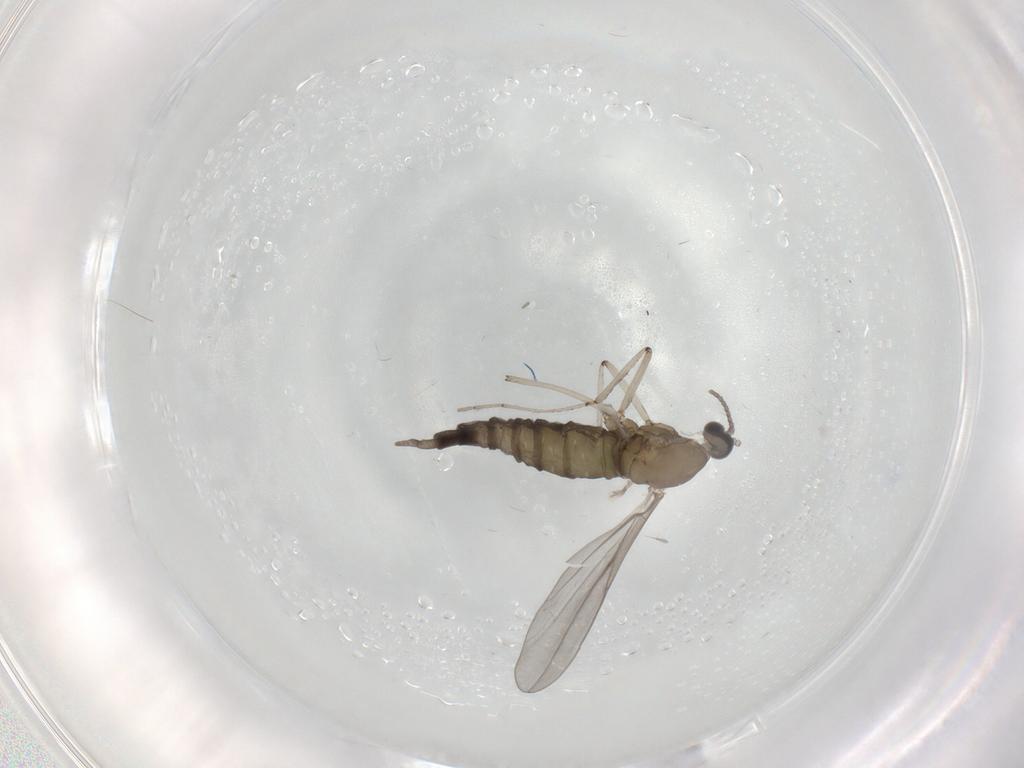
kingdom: Animalia
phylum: Arthropoda
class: Insecta
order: Diptera
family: Cecidomyiidae
